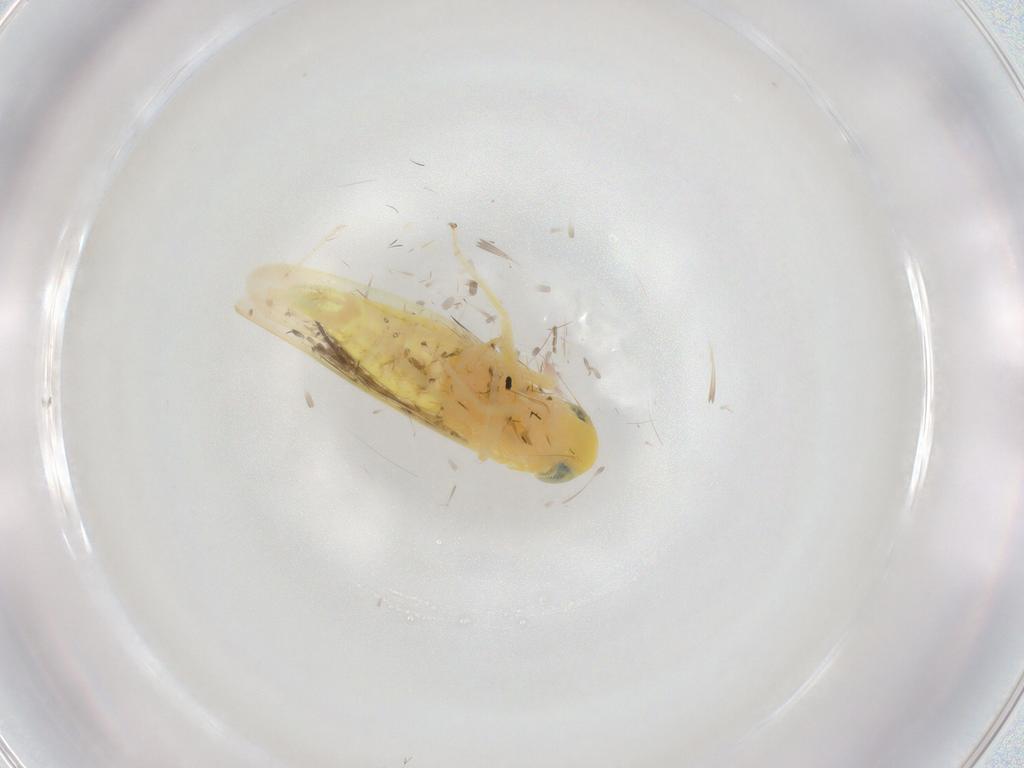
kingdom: Animalia
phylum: Arthropoda
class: Insecta
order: Hemiptera
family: Cicadellidae
